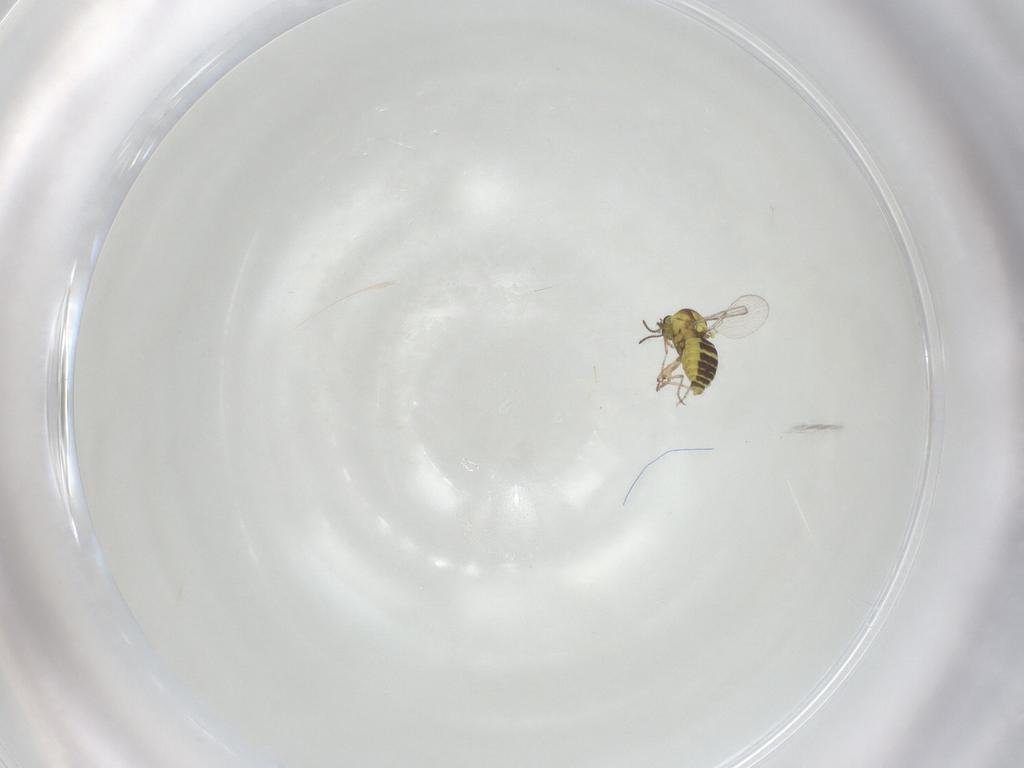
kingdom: Animalia
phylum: Arthropoda
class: Insecta
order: Diptera
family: Ceratopogonidae
